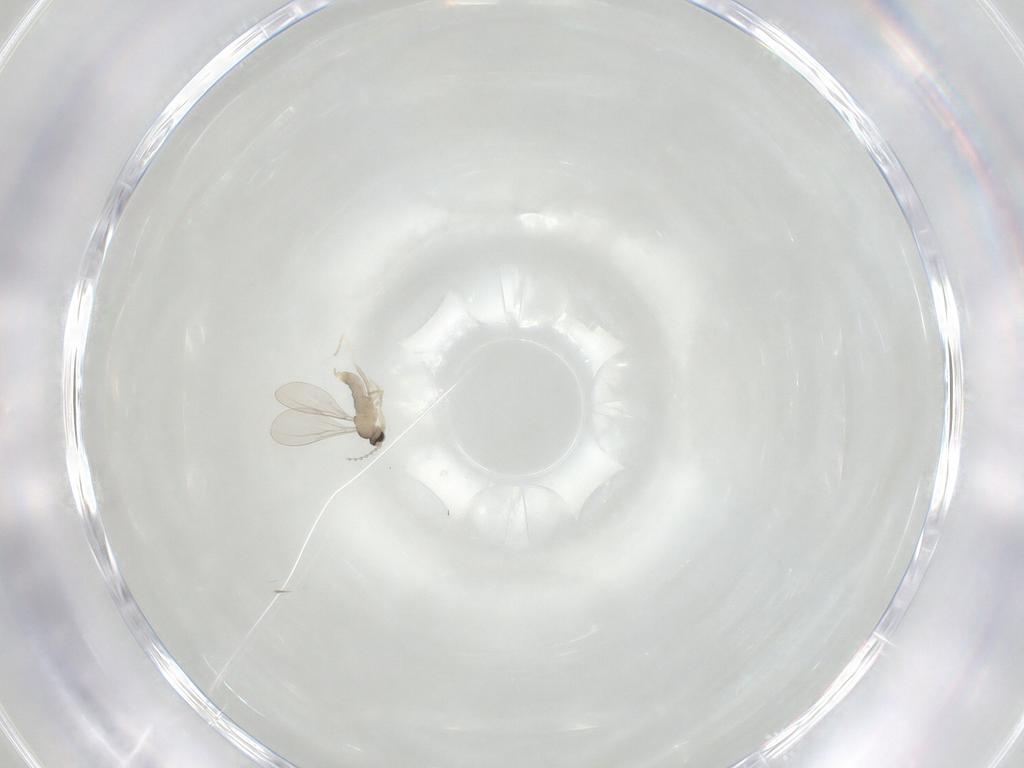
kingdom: Animalia
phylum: Arthropoda
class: Insecta
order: Diptera
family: Cecidomyiidae
